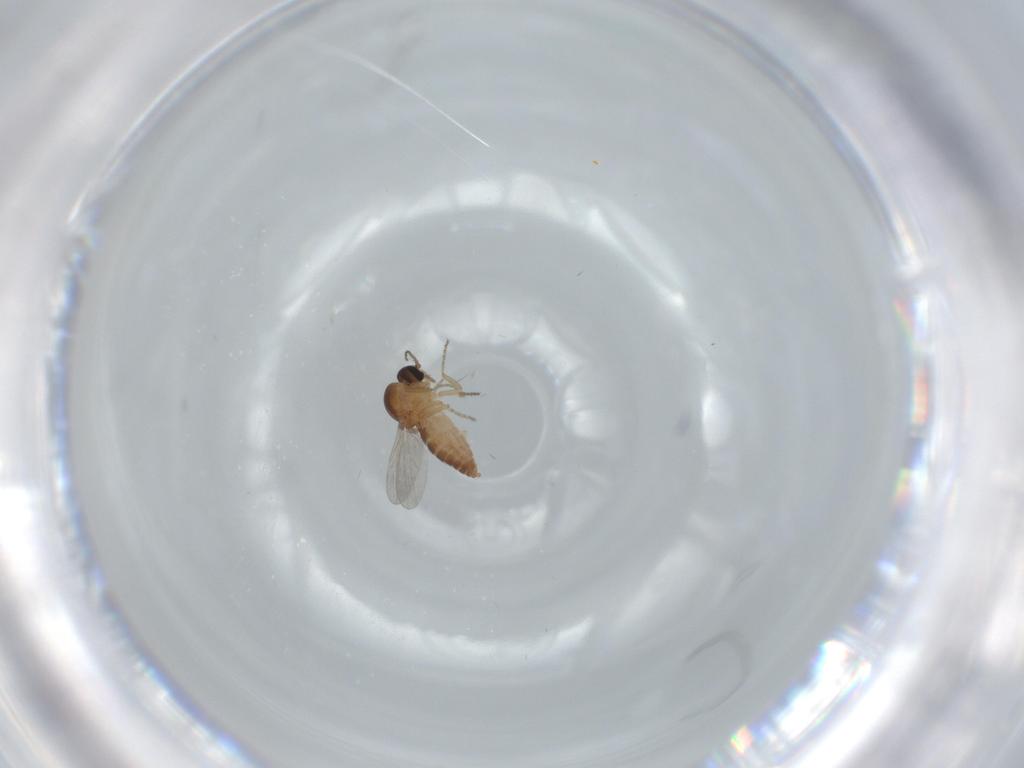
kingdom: Animalia
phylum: Arthropoda
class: Insecta
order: Diptera
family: Ceratopogonidae
